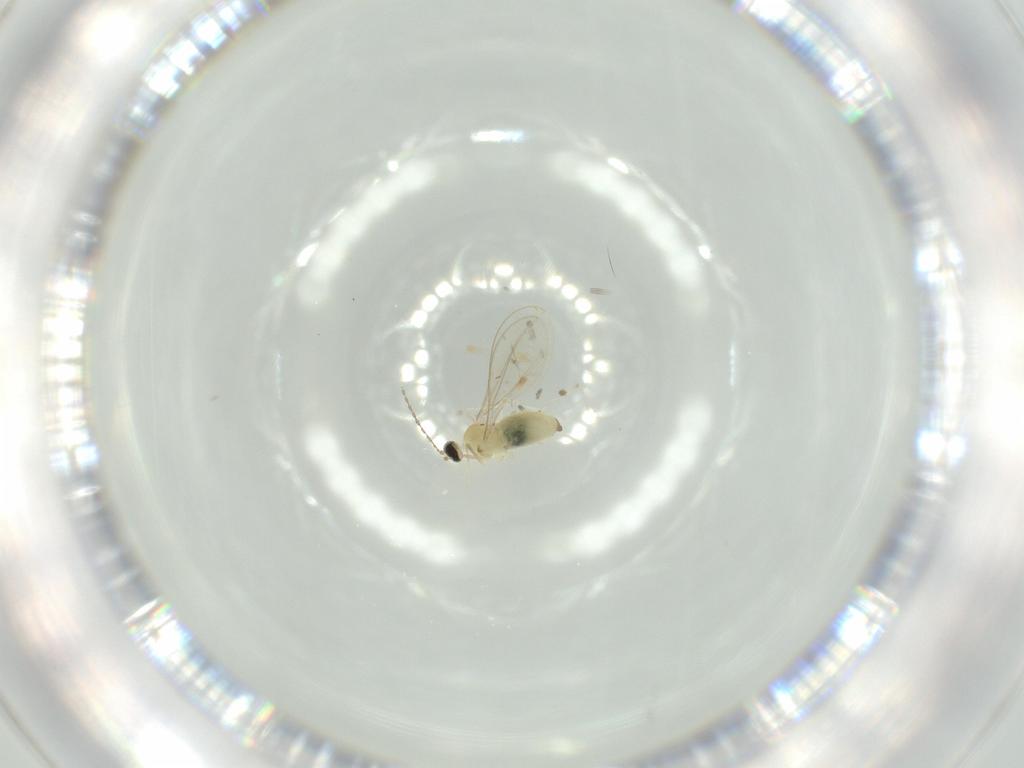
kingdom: Animalia
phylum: Arthropoda
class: Insecta
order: Diptera
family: Cecidomyiidae
